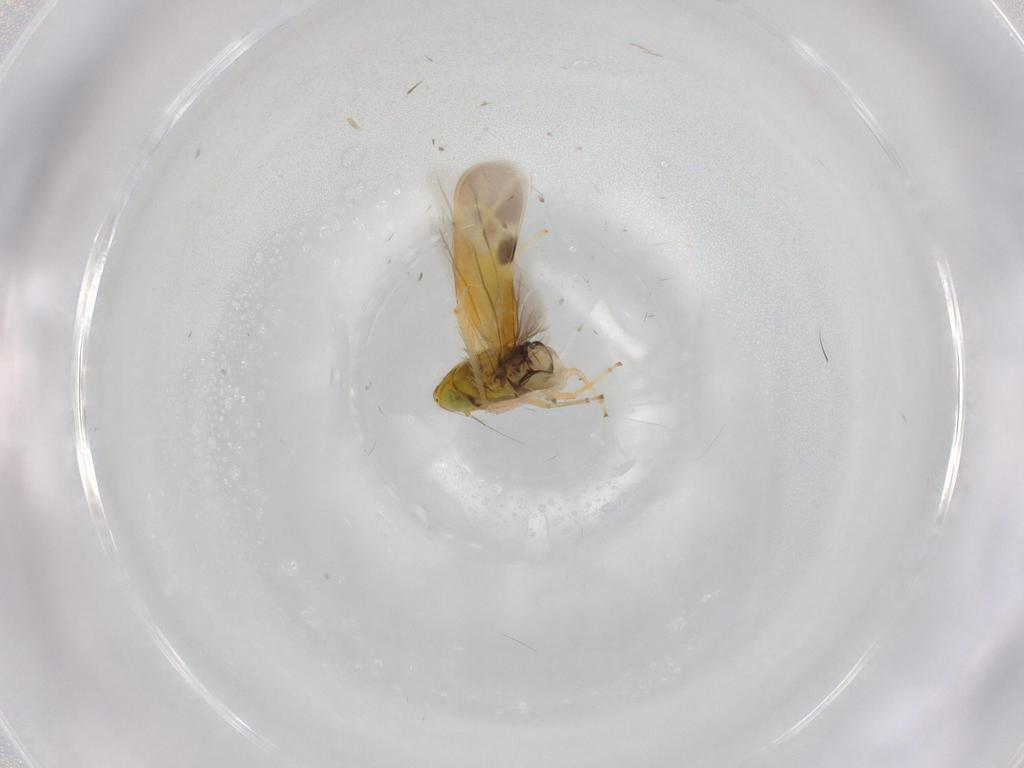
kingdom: Animalia
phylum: Arthropoda
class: Insecta
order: Hemiptera
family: Cicadellidae
